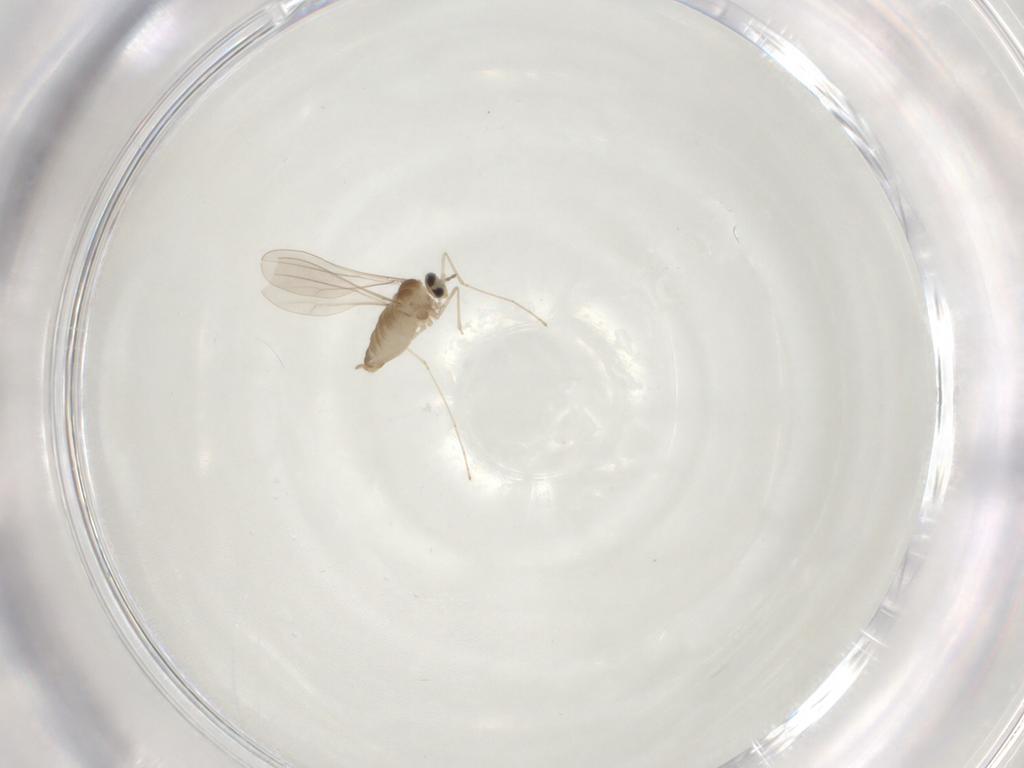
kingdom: Animalia
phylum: Arthropoda
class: Insecta
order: Diptera
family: Cecidomyiidae
